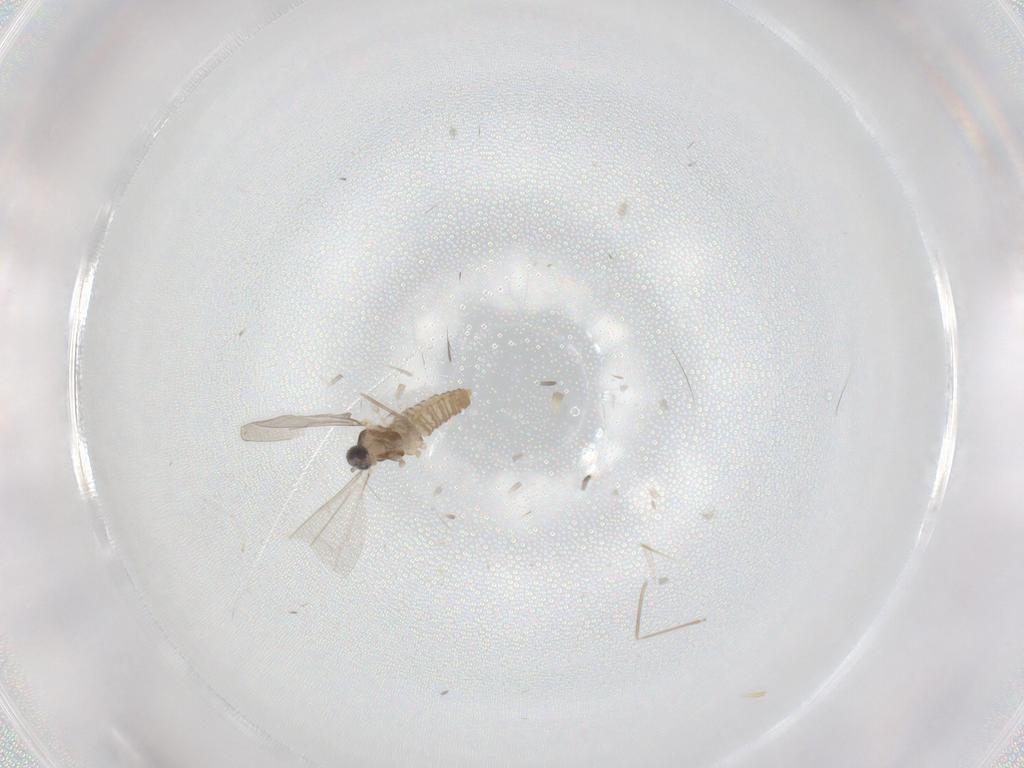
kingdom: Animalia
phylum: Arthropoda
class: Insecta
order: Diptera
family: Cecidomyiidae
